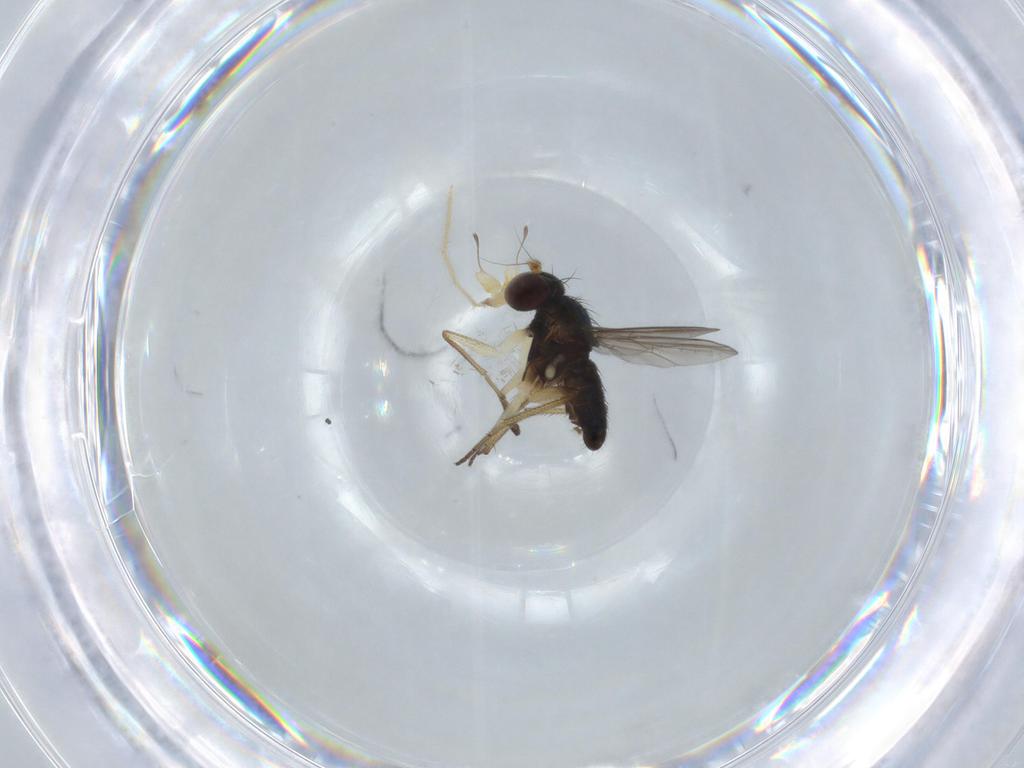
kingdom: Animalia
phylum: Arthropoda
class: Insecta
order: Diptera
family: Dolichopodidae
